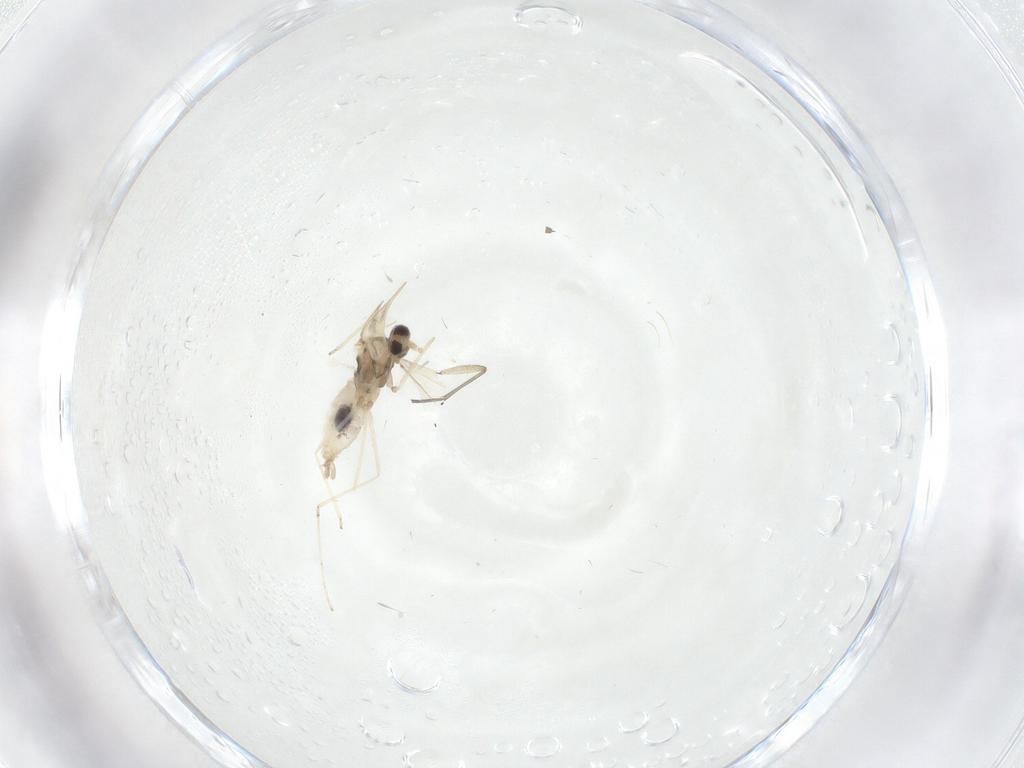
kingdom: Animalia
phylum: Arthropoda
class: Insecta
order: Diptera
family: Sciaridae
